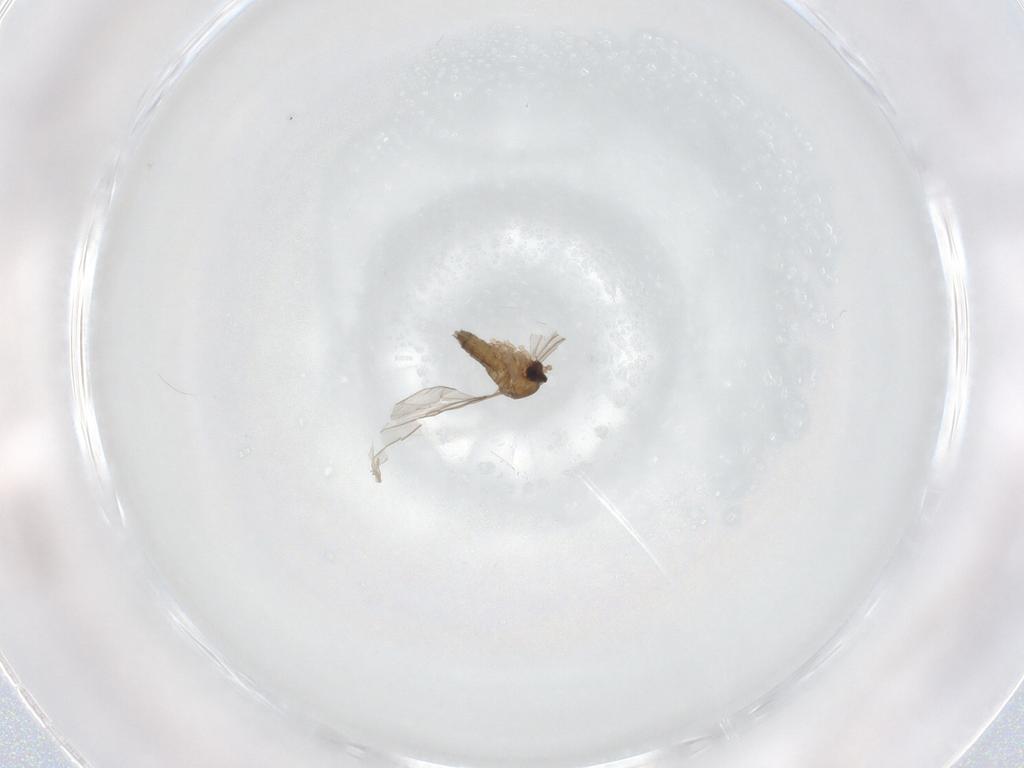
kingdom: Animalia
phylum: Arthropoda
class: Insecta
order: Diptera
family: Cecidomyiidae
